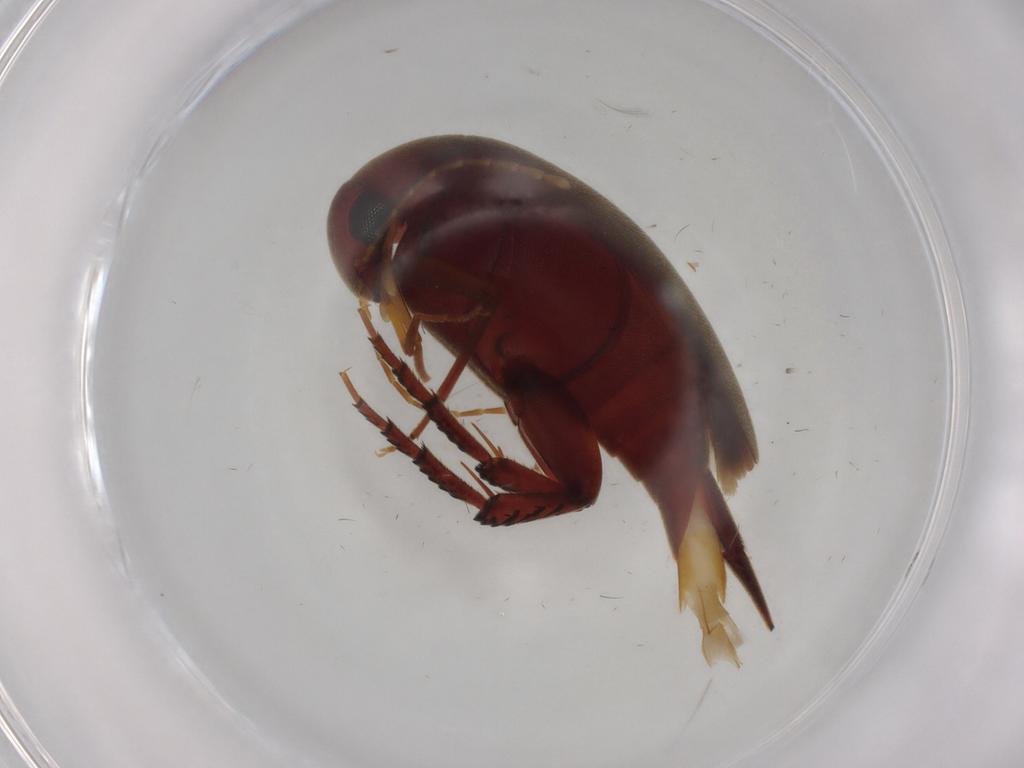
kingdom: Animalia
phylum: Arthropoda
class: Insecta
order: Coleoptera
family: Mordellidae
